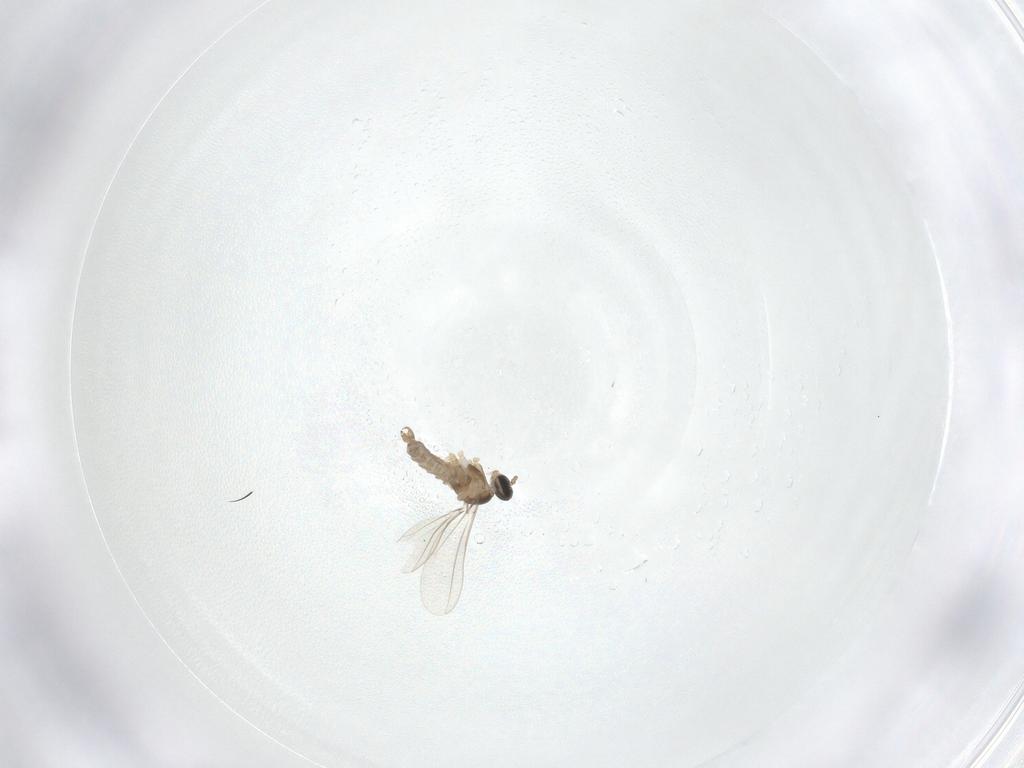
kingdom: Animalia
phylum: Arthropoda
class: Insecta
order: Diptera
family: Cecidomyiidae
